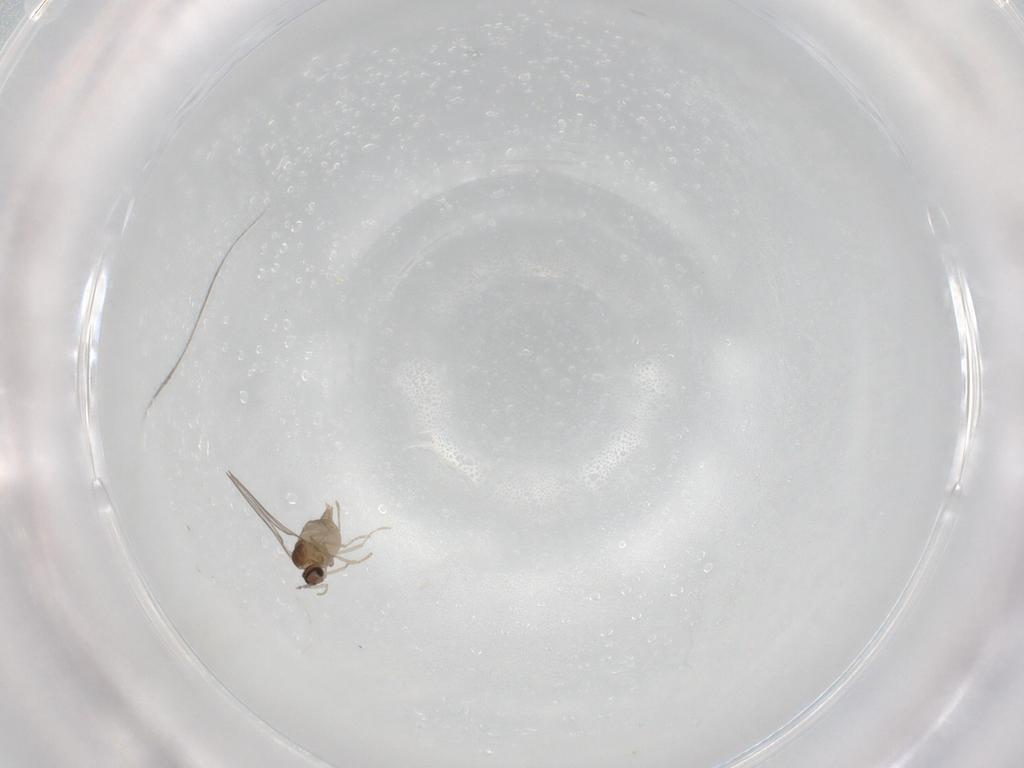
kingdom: Animalia
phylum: Arthropoda
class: Insecta
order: Diptera
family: Cecidomyiidae
